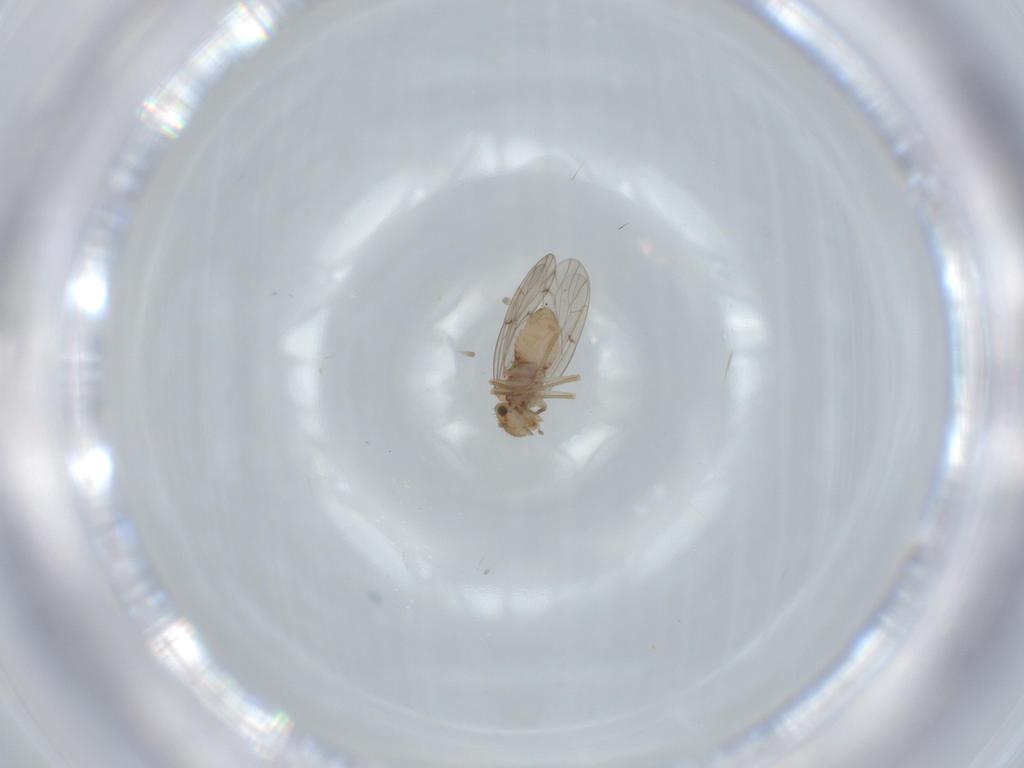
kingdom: Animalia
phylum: Arthropoda
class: Insecta
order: Psocodea
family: Ectopsocidae
